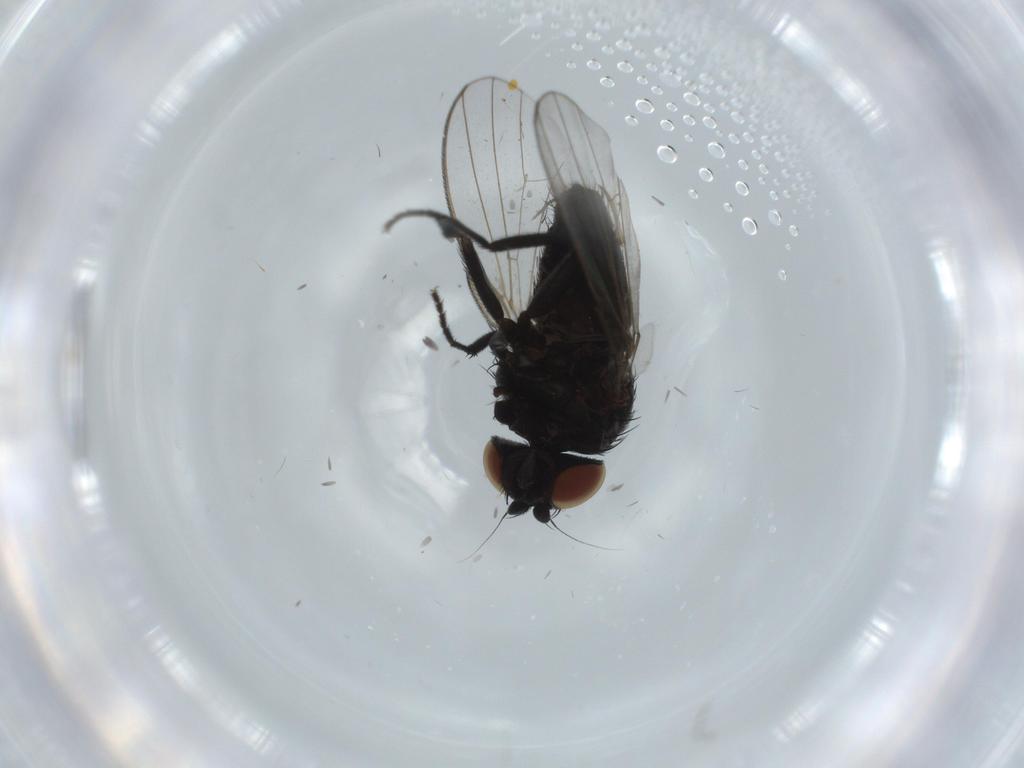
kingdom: Animalia
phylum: Arthropoda
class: Insecta
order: Diptera
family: Sphaeroceridae
